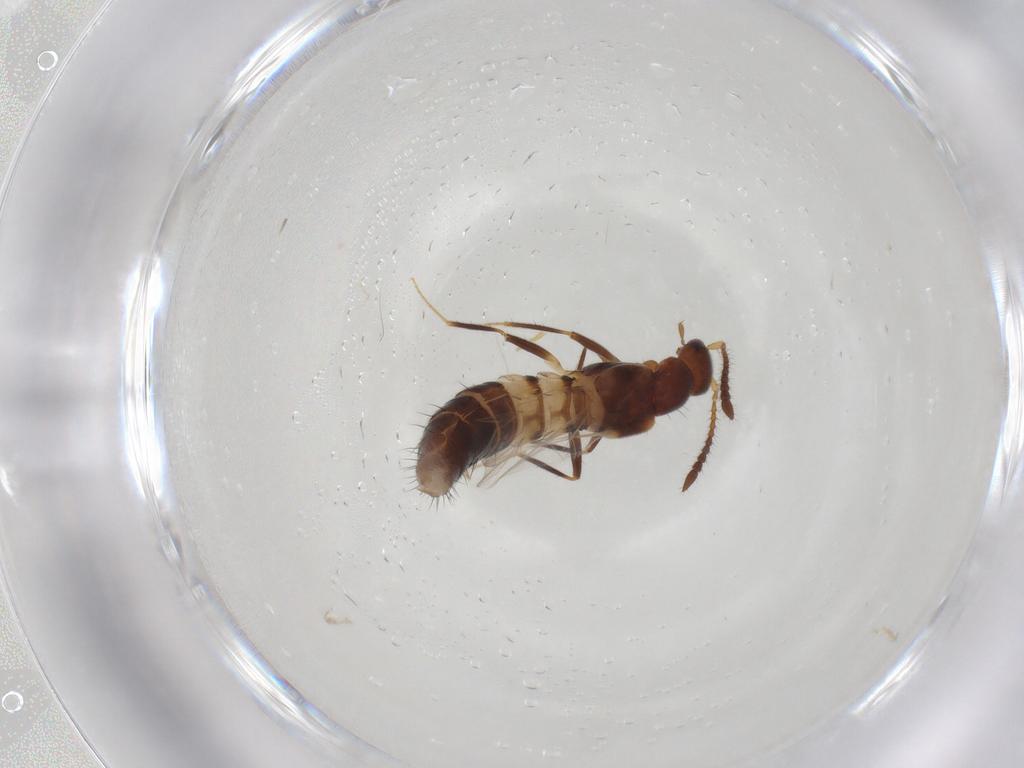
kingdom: Animalia
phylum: Arthropoda
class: Insecta
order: Coleoptera
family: Staphylinidae
